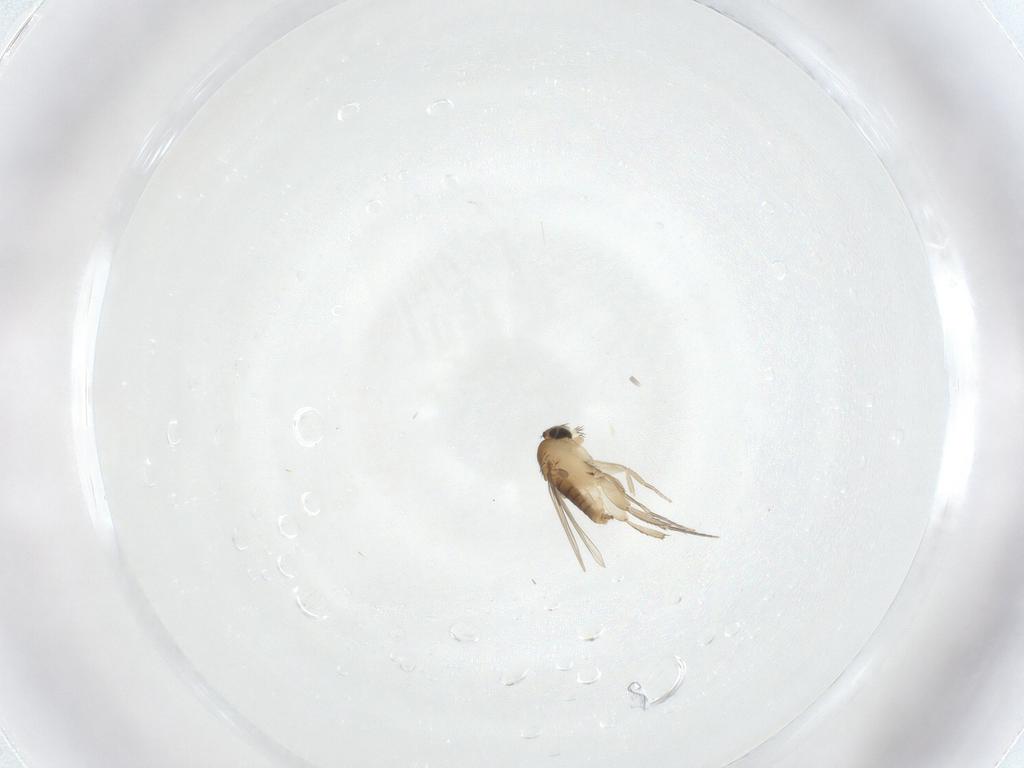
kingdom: Animalia
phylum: Arthropoda
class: Insecta
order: Diptera
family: Phoridae
